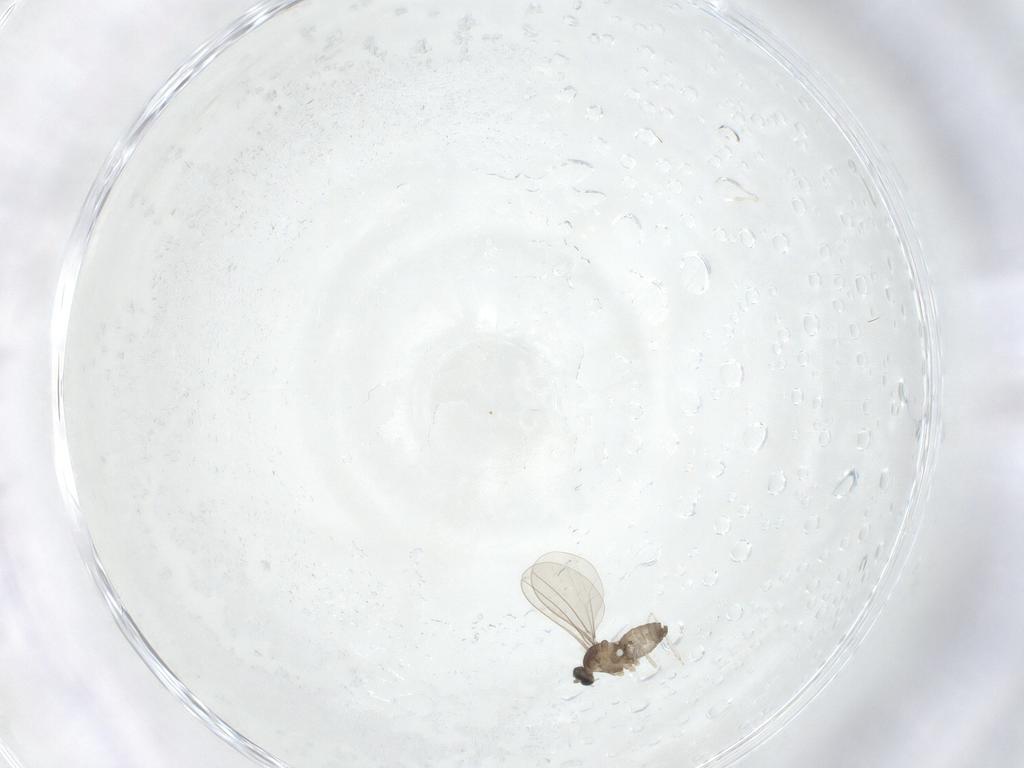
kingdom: Animalia
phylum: Arthropoda
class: Insecta
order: Diptera
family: Cecidomyiidae
